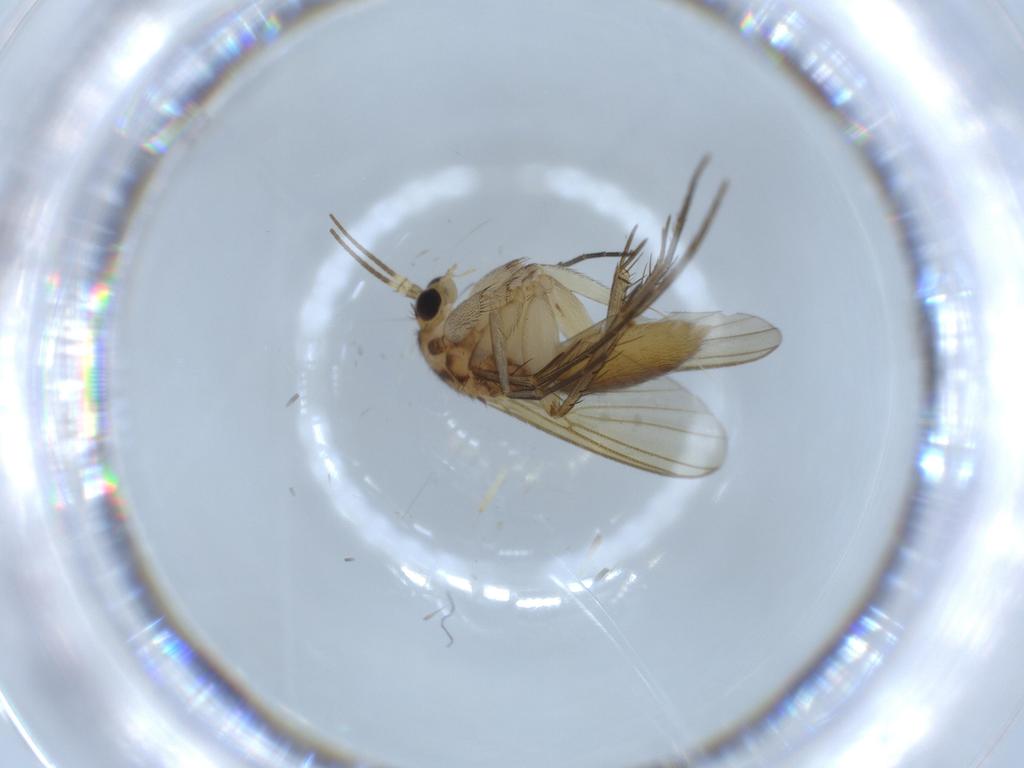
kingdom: Animalia
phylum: Arthropoda
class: Insecta
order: Diptera
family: Mycetophilidae
